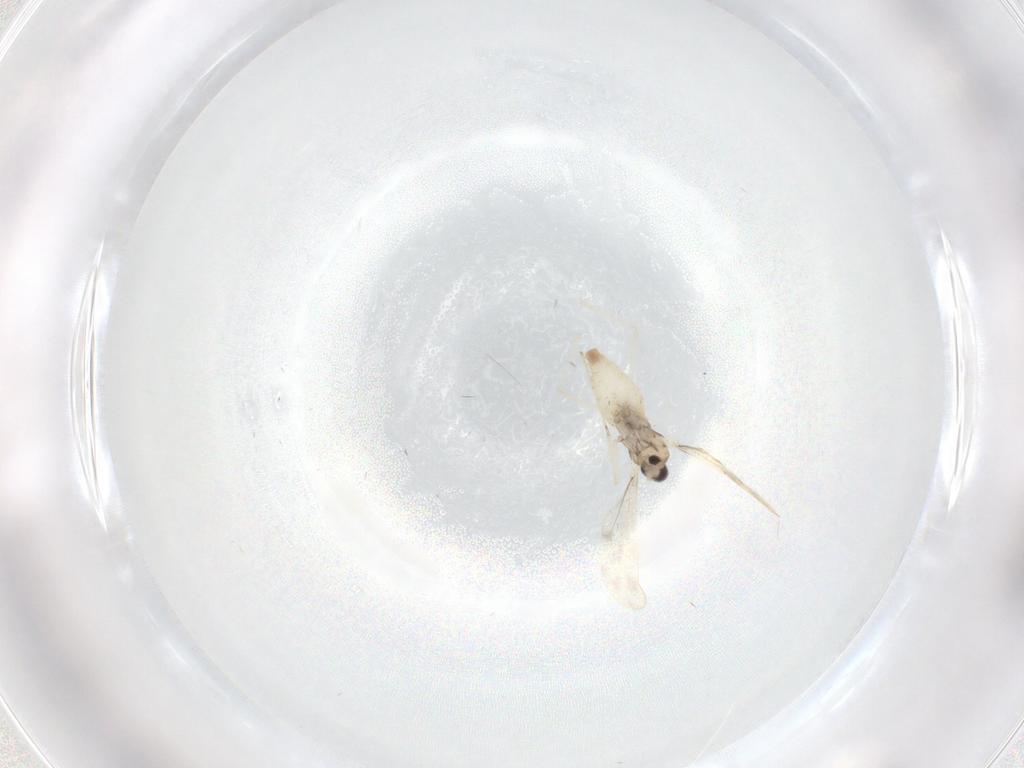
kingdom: Animalia
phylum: Arthropoda
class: Insecta
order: Diptera
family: Cecidomyiidae
